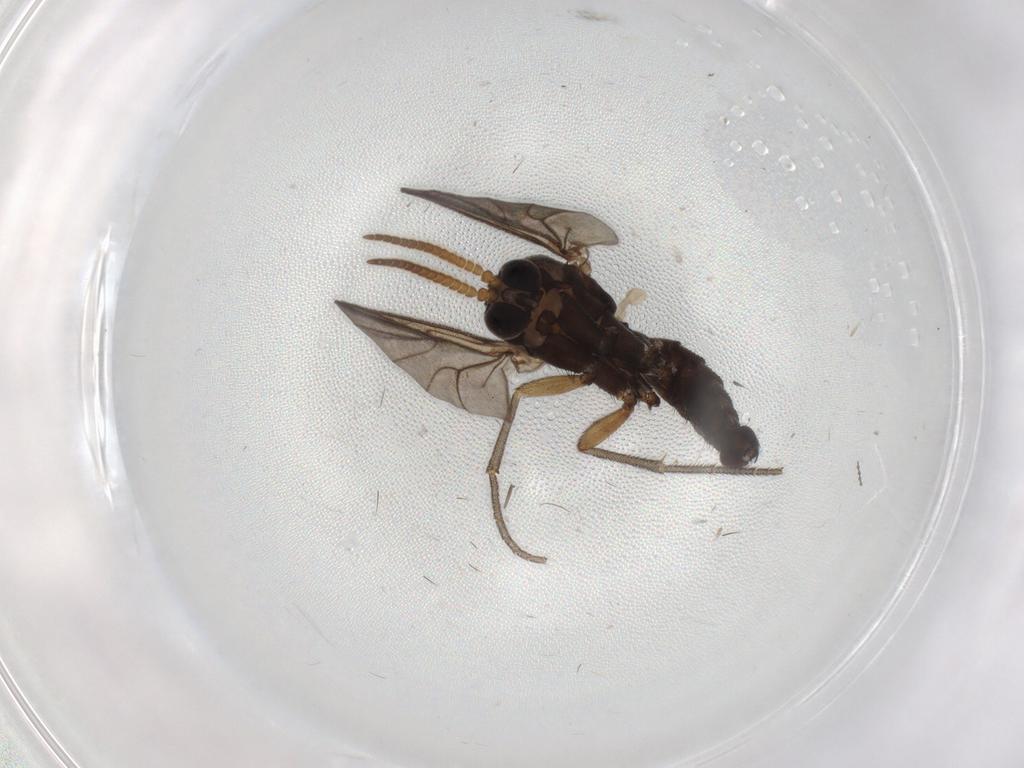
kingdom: Animalia
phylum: Arthropoda
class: Insecta
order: Diptera
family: Mycetophilidae
